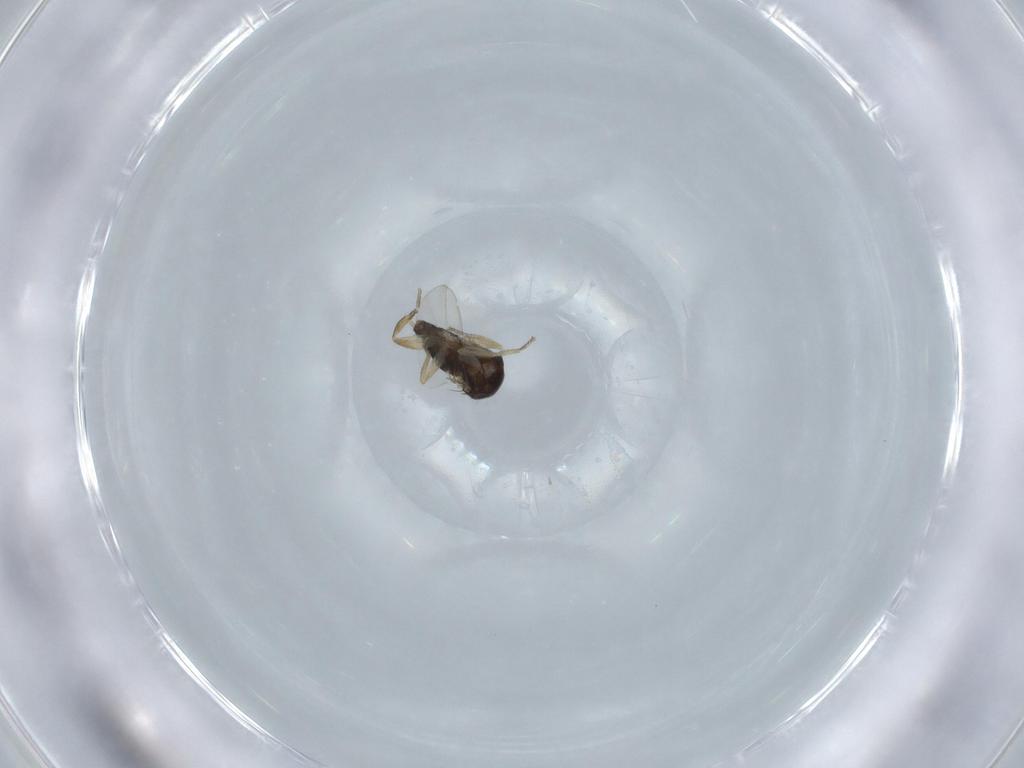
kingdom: Animalia
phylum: Arthropoda
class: Insecta
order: Diptera
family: Phoridae
